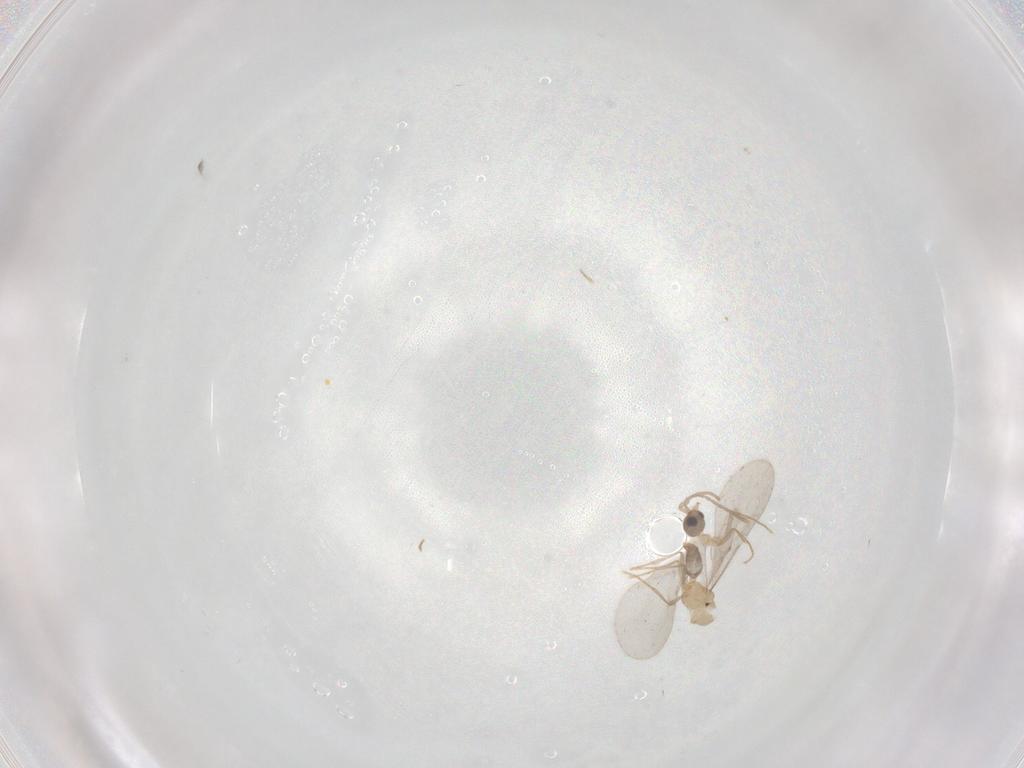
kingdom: Animalia
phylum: Arthropoda
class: Insecta
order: Hymenoptera
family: Formicidae
